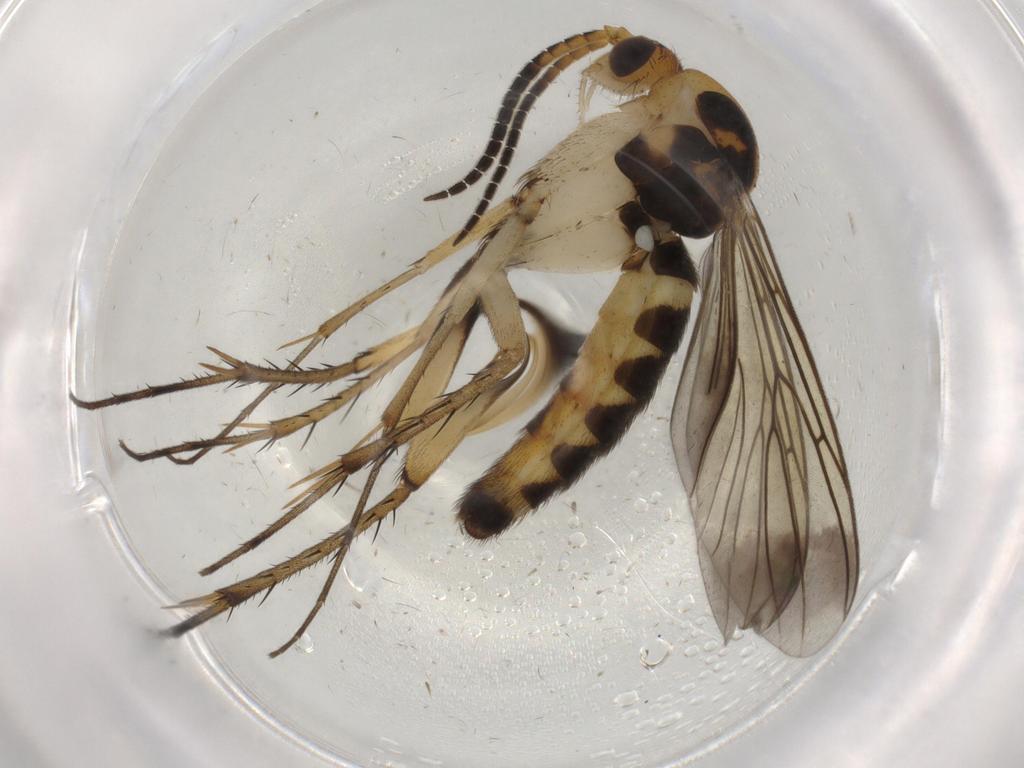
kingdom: Animalia
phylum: Arthropoda
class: Insecta
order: Diptera
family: Mycetophilidae
